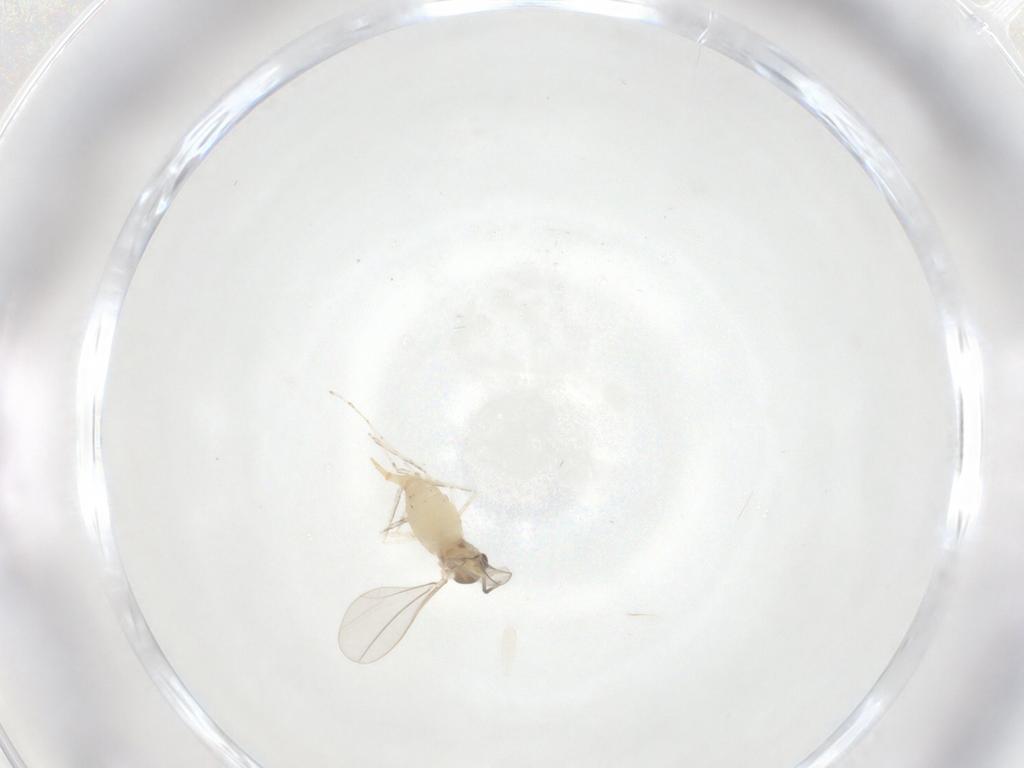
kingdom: Animalia
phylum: Arthropoda
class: Insecta
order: Diptera
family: Cecidomyiidae
